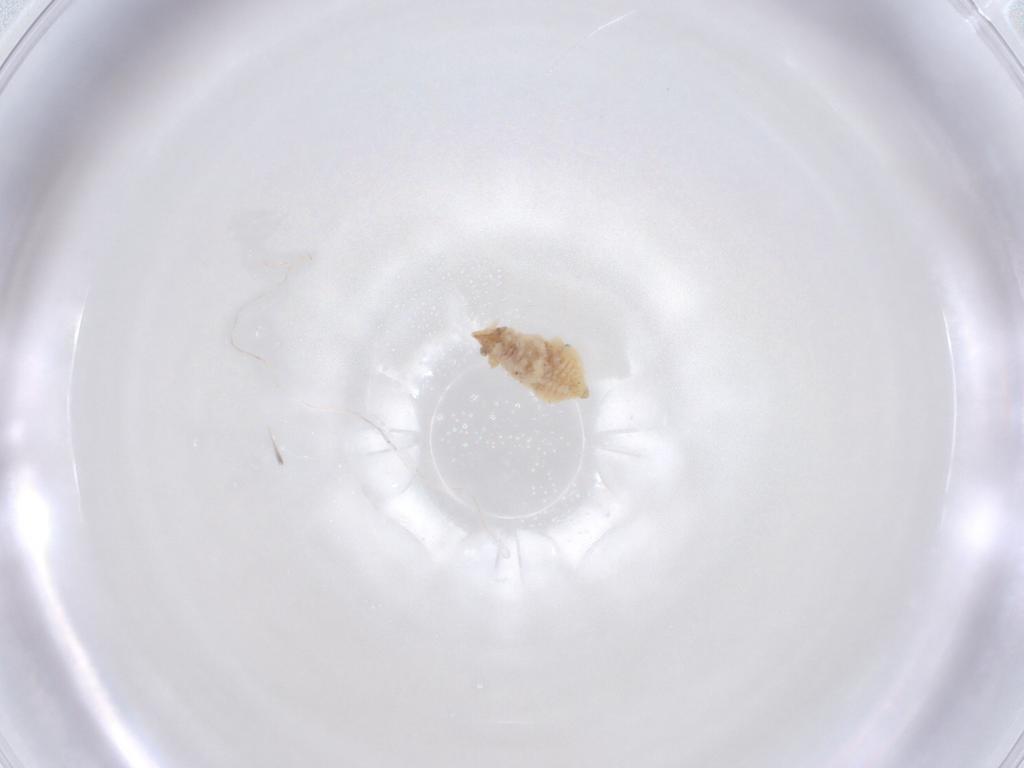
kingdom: Animalia
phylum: Arthropoda
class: Insecta
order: Neuroptera
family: Coniopterygidae
